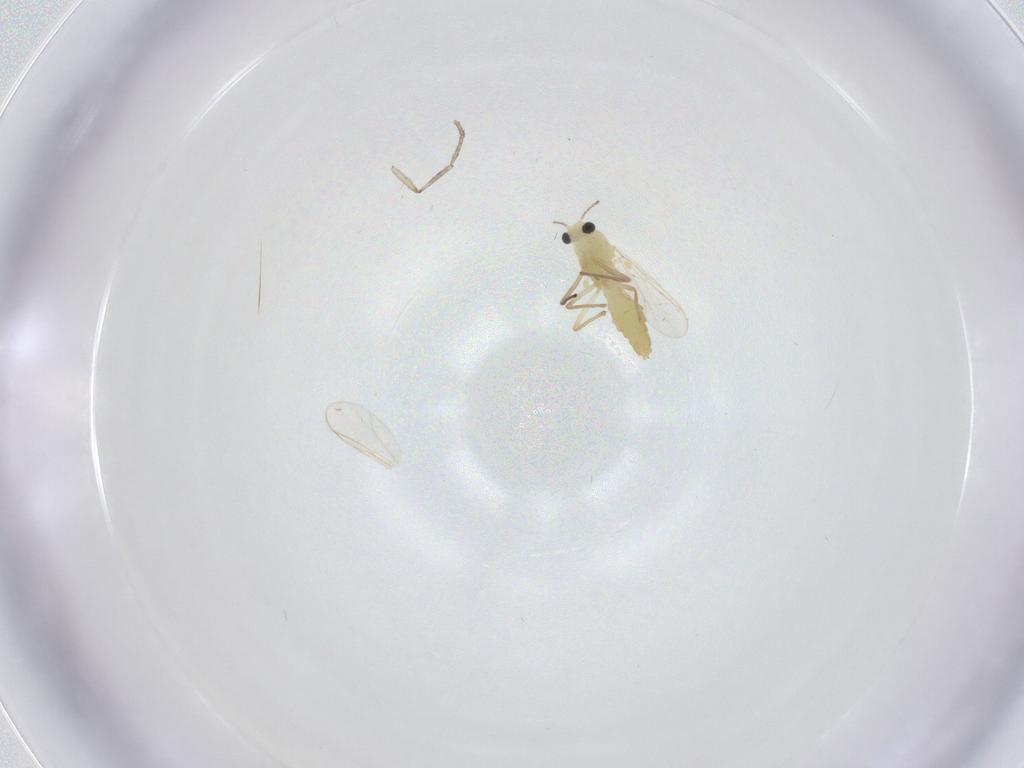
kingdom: Animalia
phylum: Arthropoda
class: Insecta
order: Diptera
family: Chironomidae
